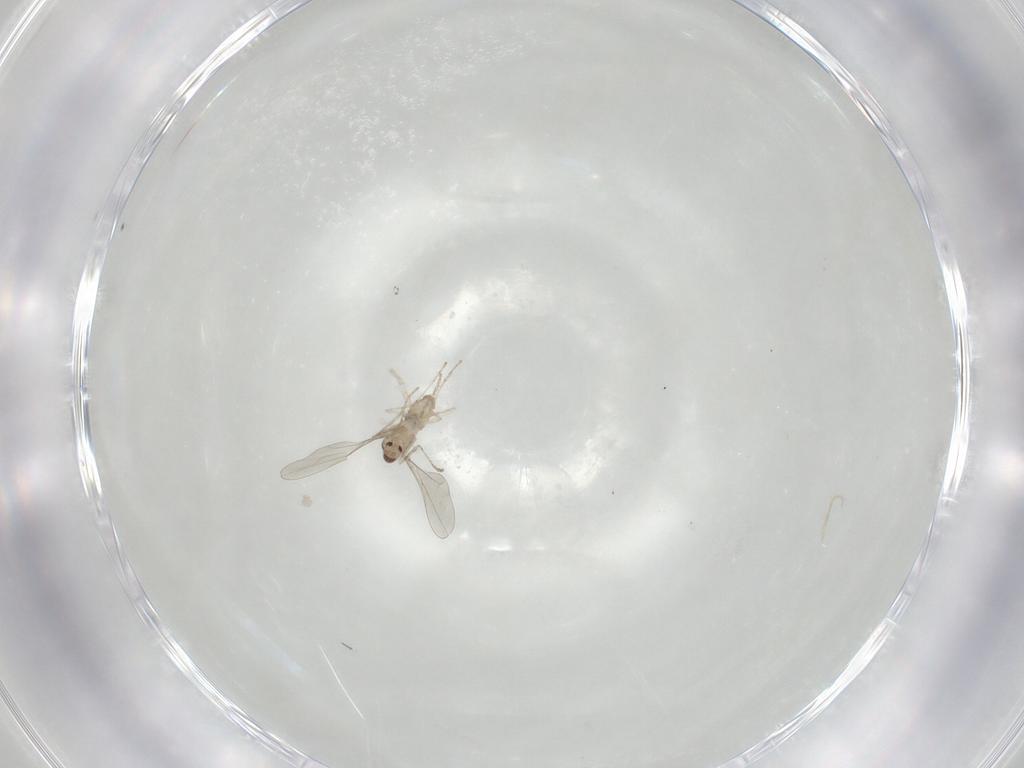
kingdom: Animalia
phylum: Arthropoda
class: Insecta
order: Diptera
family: Cecidomyiidae
